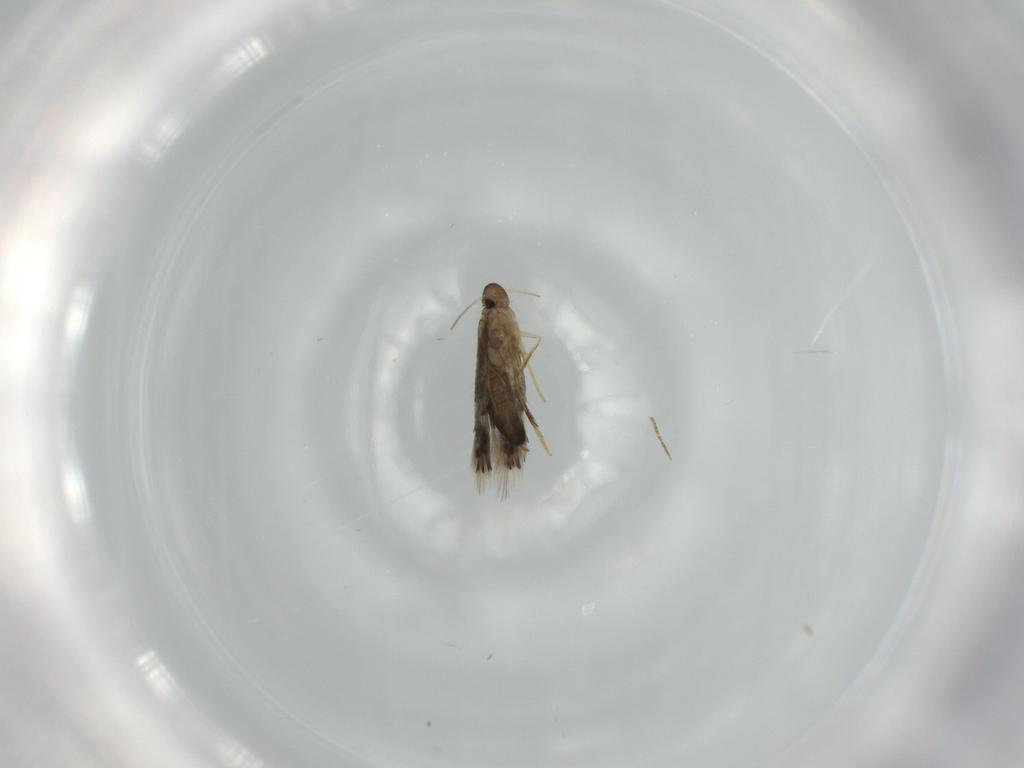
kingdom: Animalia
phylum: Arthropoda
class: Insecta
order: Lepidoptera
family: Heliozelidae
